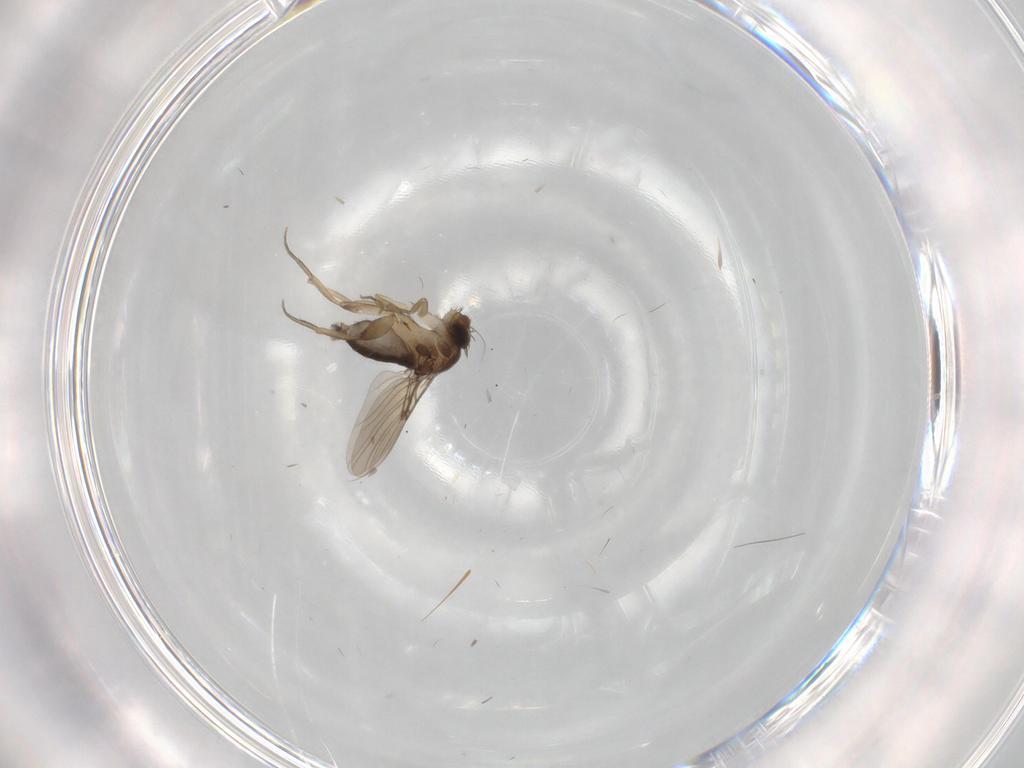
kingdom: Animalia
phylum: Arthropoda
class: Insecta
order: Diptera
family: Phoridae
